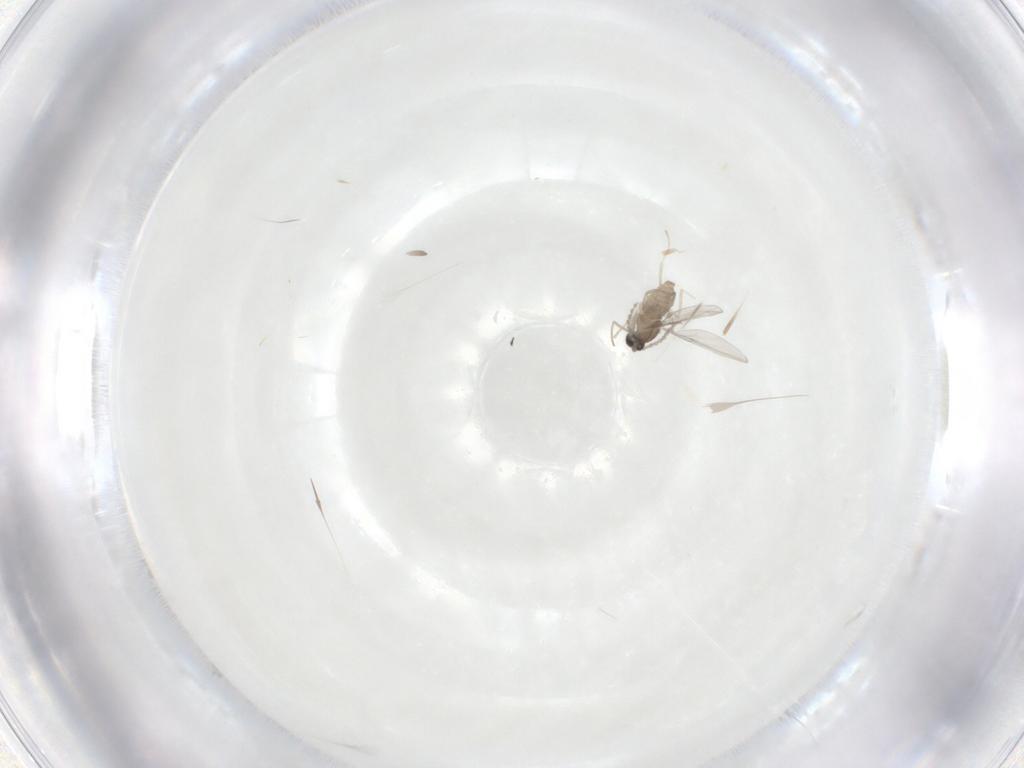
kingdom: Animalia
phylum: Arthropoda
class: Insecta
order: Diptera
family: Cecidomyiidae
